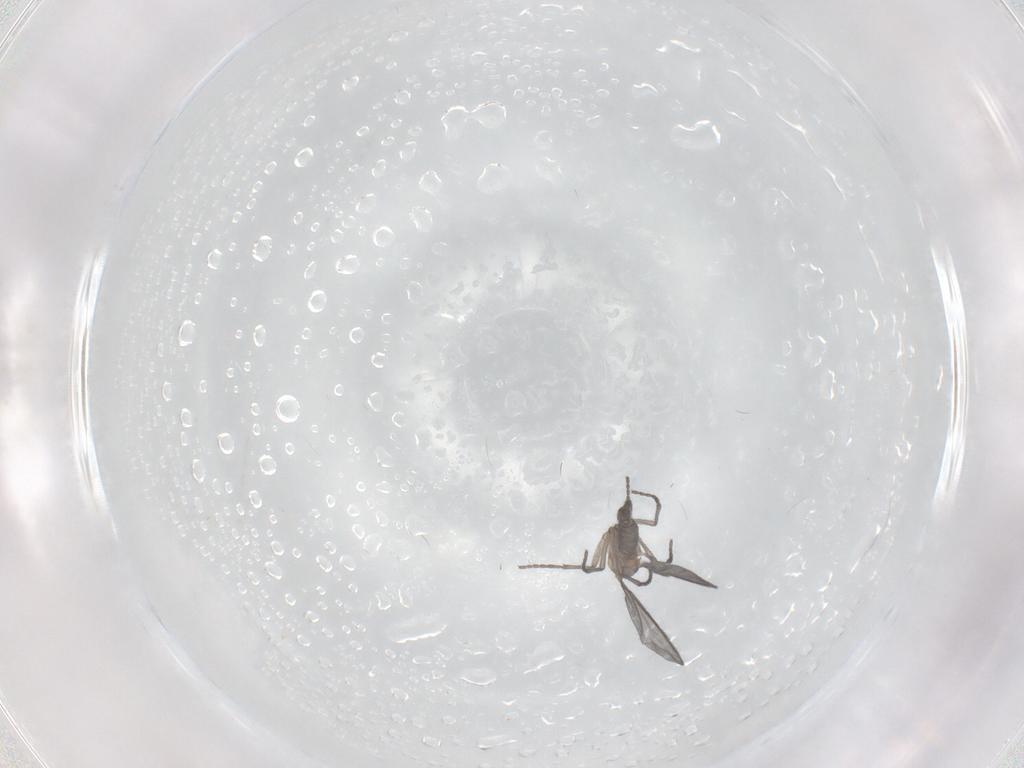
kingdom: Animalia
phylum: Arthropoda
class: Insecta
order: Diptera
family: Sciaridae
